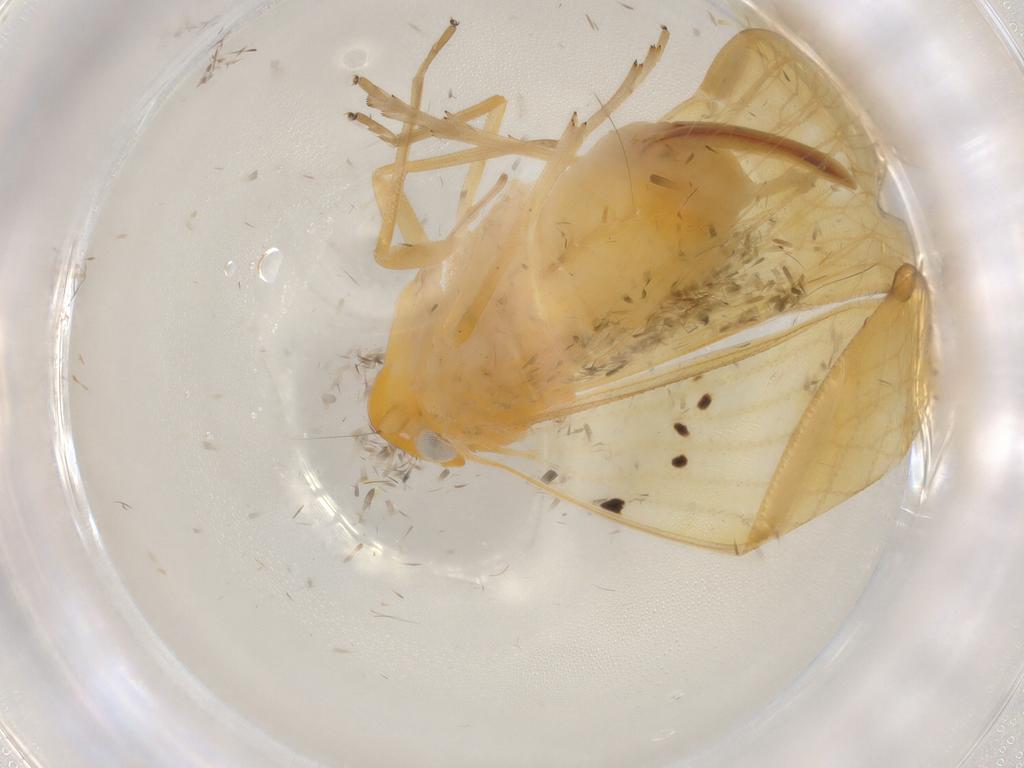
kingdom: Animalia
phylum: Arthropoda
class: Insecta
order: Hemiptera
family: Cixiidae
